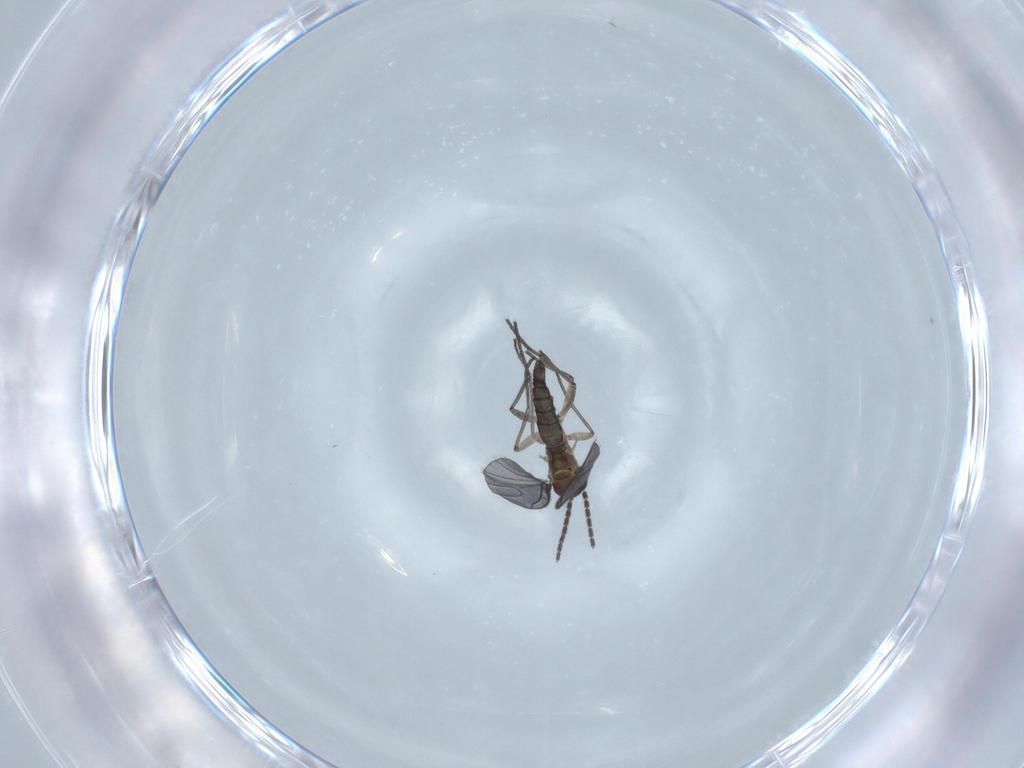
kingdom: Animalia
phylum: Arthropoda
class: Insecta
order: Diptera
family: Sciaridae
